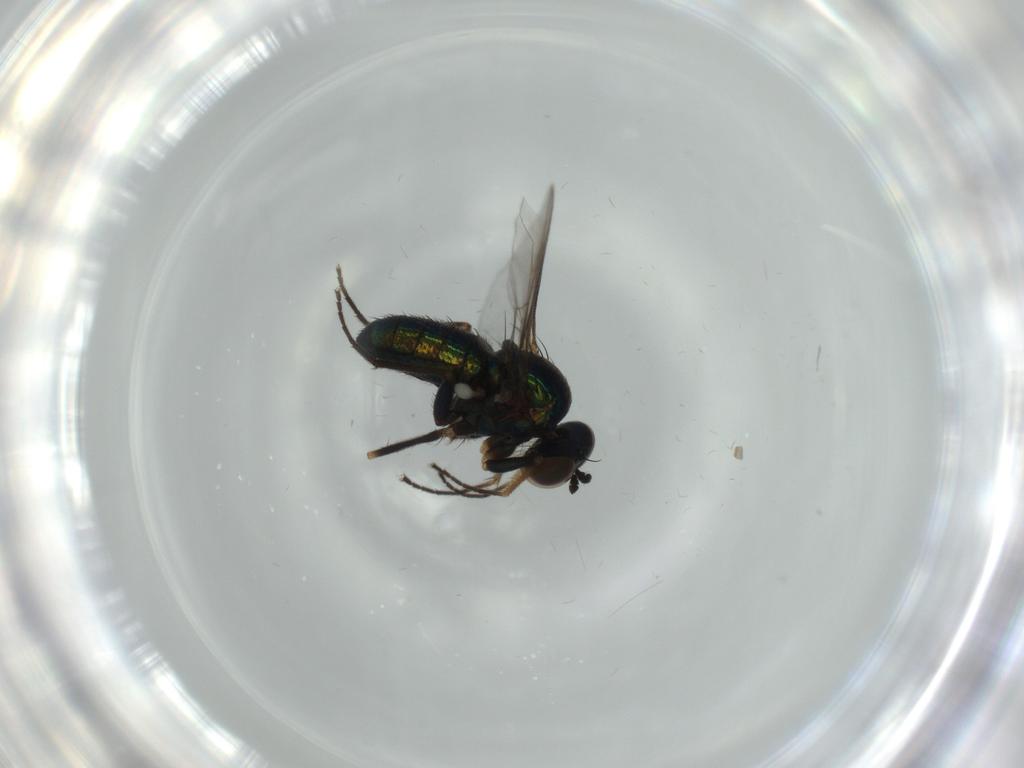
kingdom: Animalia
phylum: Arthropoda
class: Insecta
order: Diptera
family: Dolichopodidae
